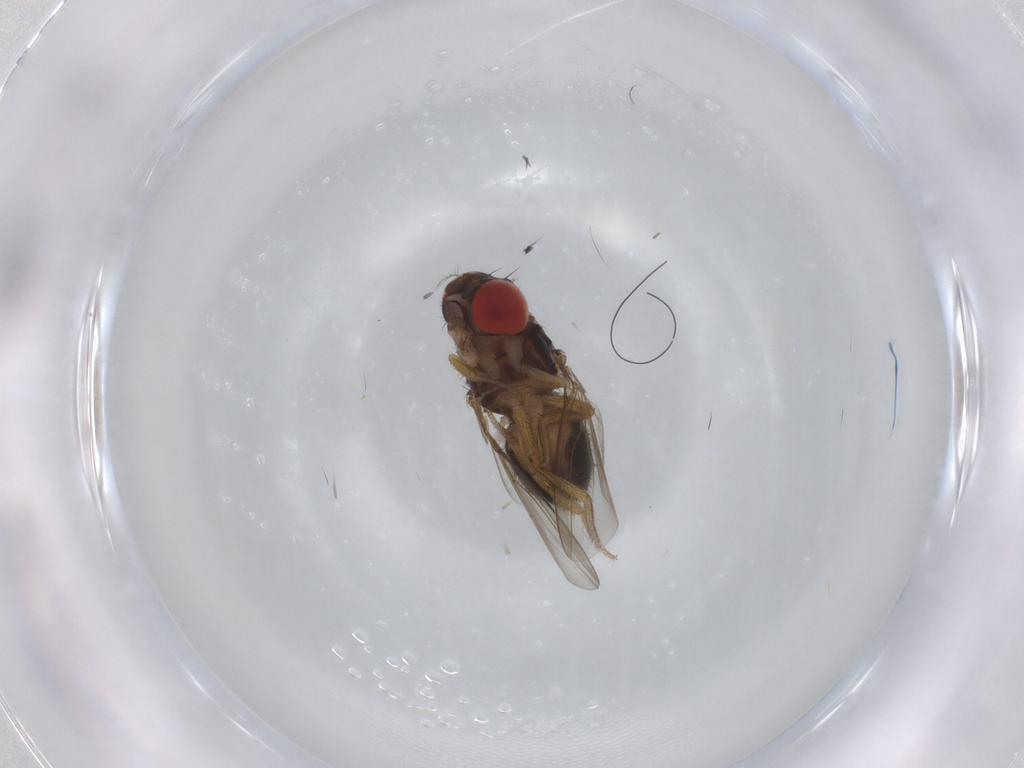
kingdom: Animalia
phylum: Arthropoda
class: Insecta
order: Diptera
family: Drosophilidae
